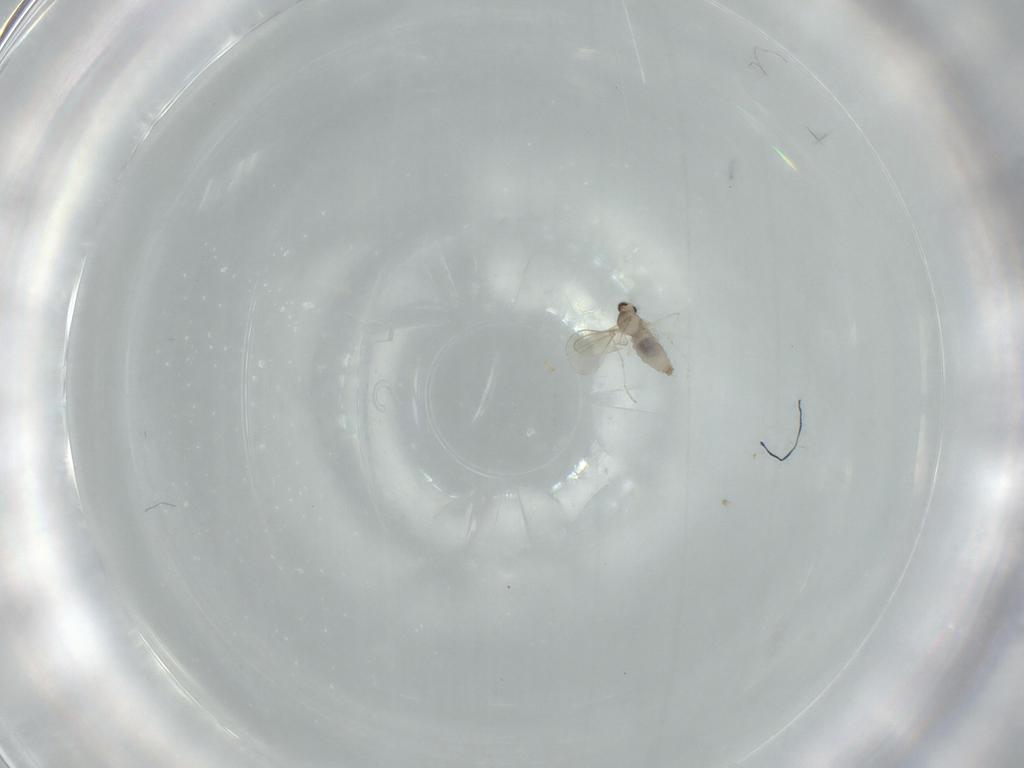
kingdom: Animalia
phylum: Arthropoda
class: Insecta
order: Diptera
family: Cecidomyiidae
